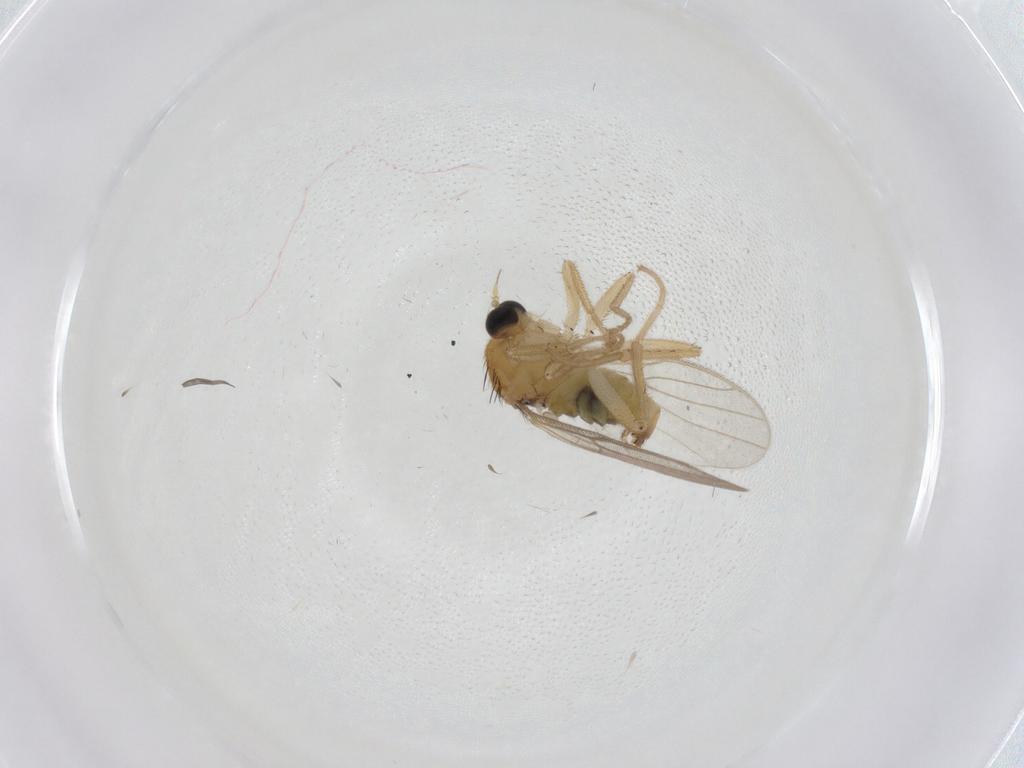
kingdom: Animalia
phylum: Arthropoda
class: Insecta
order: Diptera
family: Hybotidae
